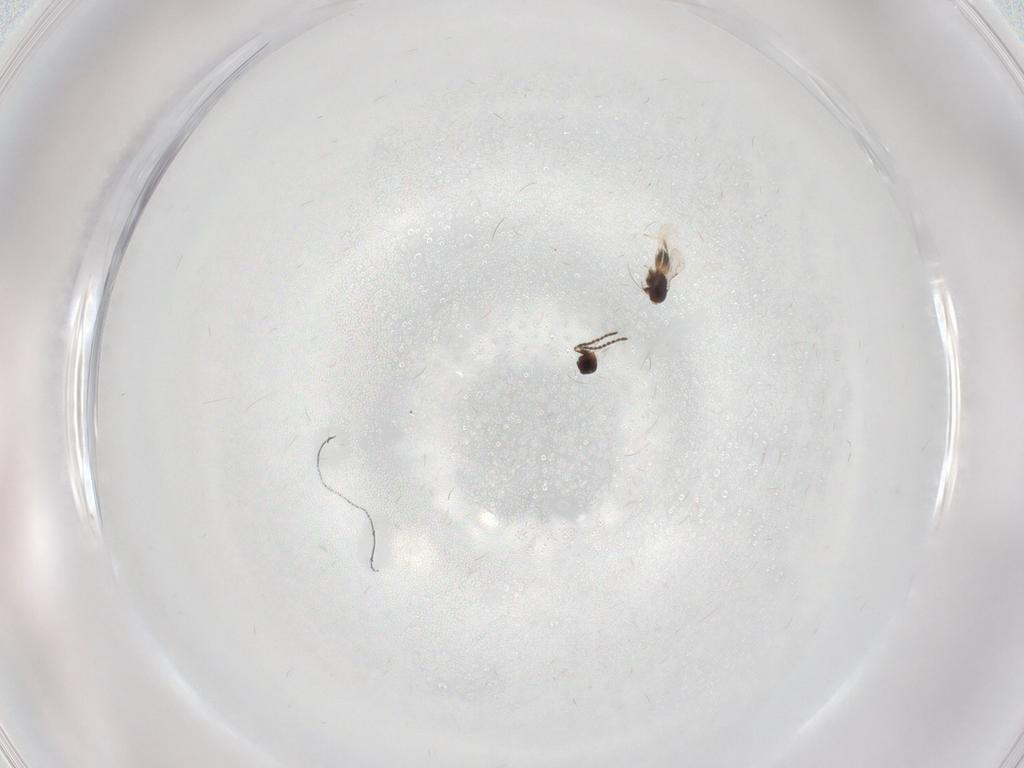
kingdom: Animalia
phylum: Arthropoda
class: Insecta
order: Hymenoptera
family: Ceraphronidae
